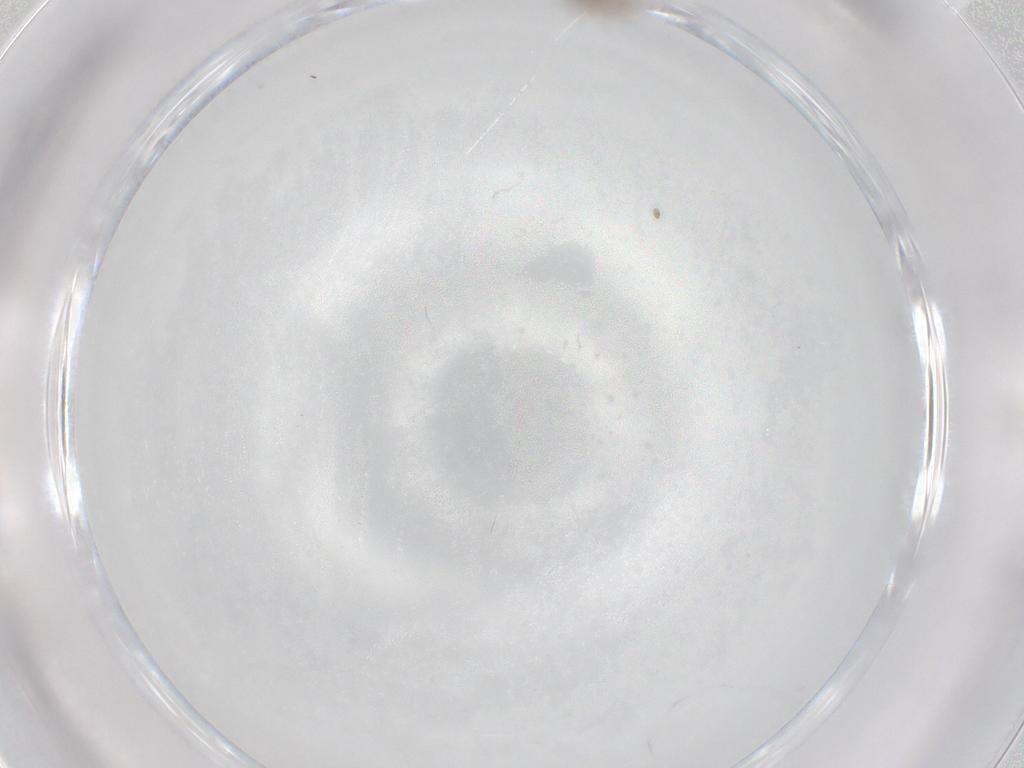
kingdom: Animalia
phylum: Arthropoda
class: Insecta
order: Diptera
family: Cecidomyiidae
